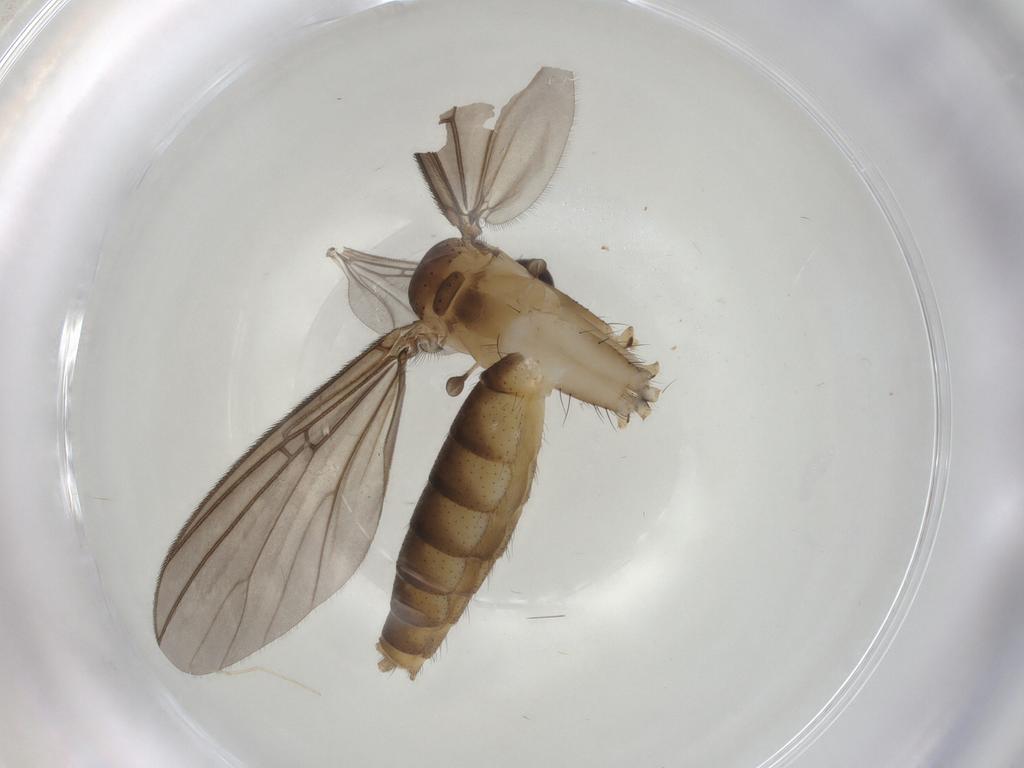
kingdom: Animalia
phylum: Arthropoda
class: Insecta
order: Diptera
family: Mycetophilidae
